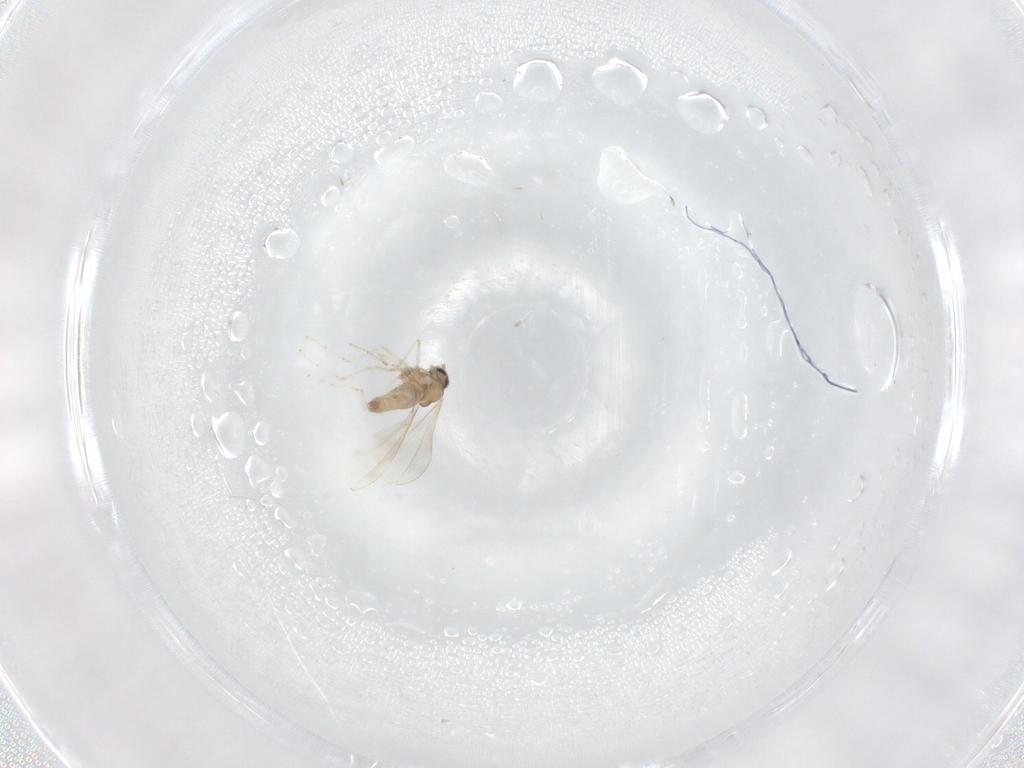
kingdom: Animalia
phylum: Arthropoda
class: Insecta
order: Diptera
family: Cecidomyiidae
